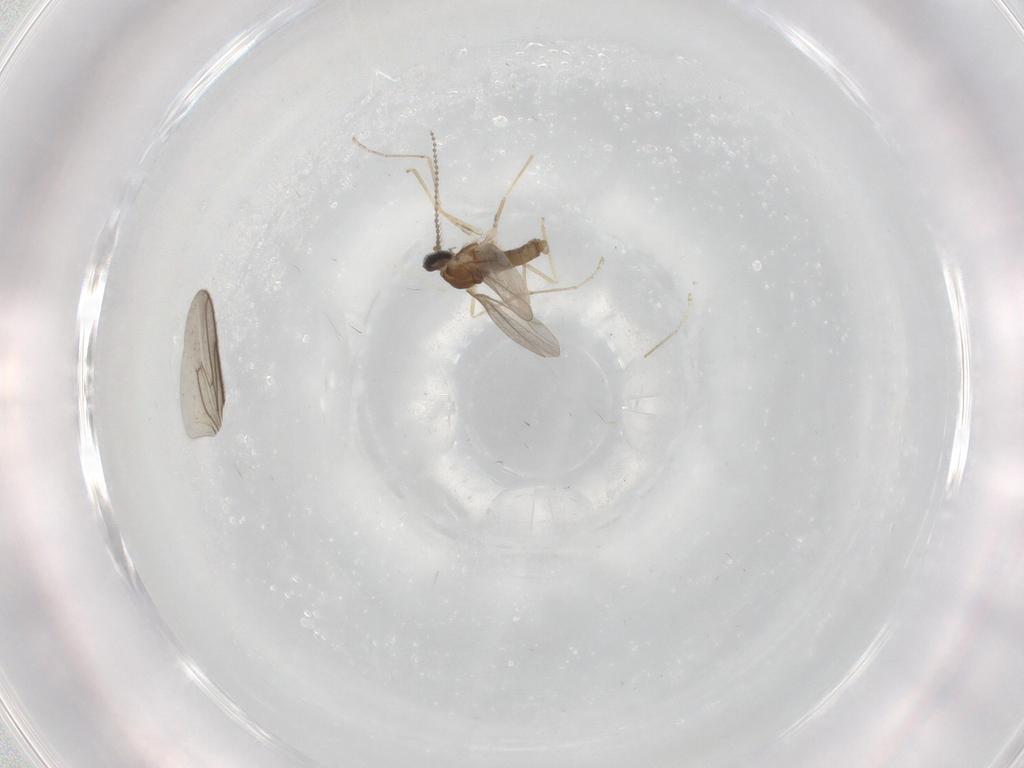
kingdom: Animalia
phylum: Arthropoda
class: Insecta
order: Diptera
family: Cecidomyiidae
